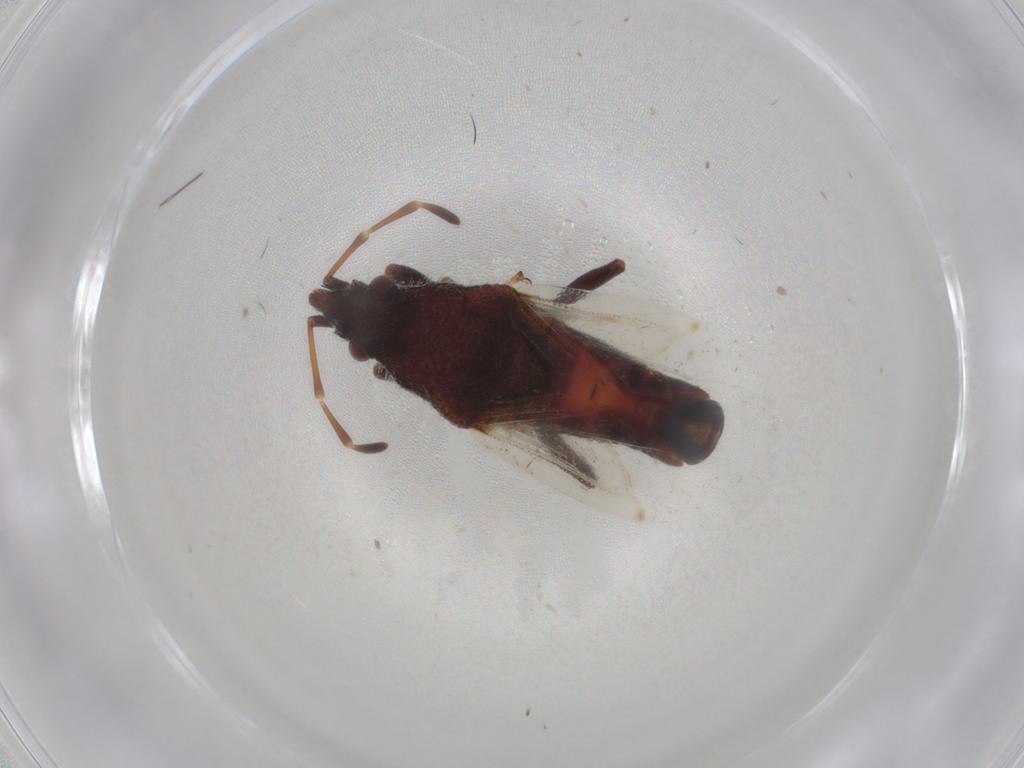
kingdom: Animalia
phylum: Arthropoda
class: Insecta
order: Hemiptera
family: Oxycarenidae
